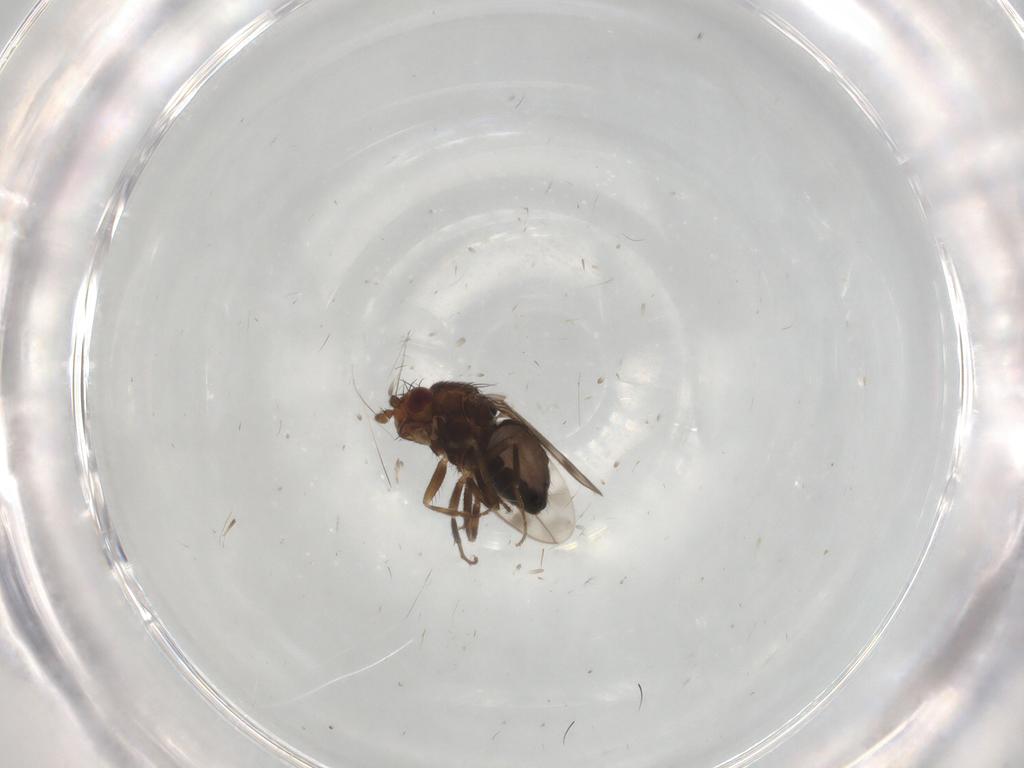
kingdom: Animalia
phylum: Arthropoda
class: Insecta
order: Diptera
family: Sphaeroceridae
